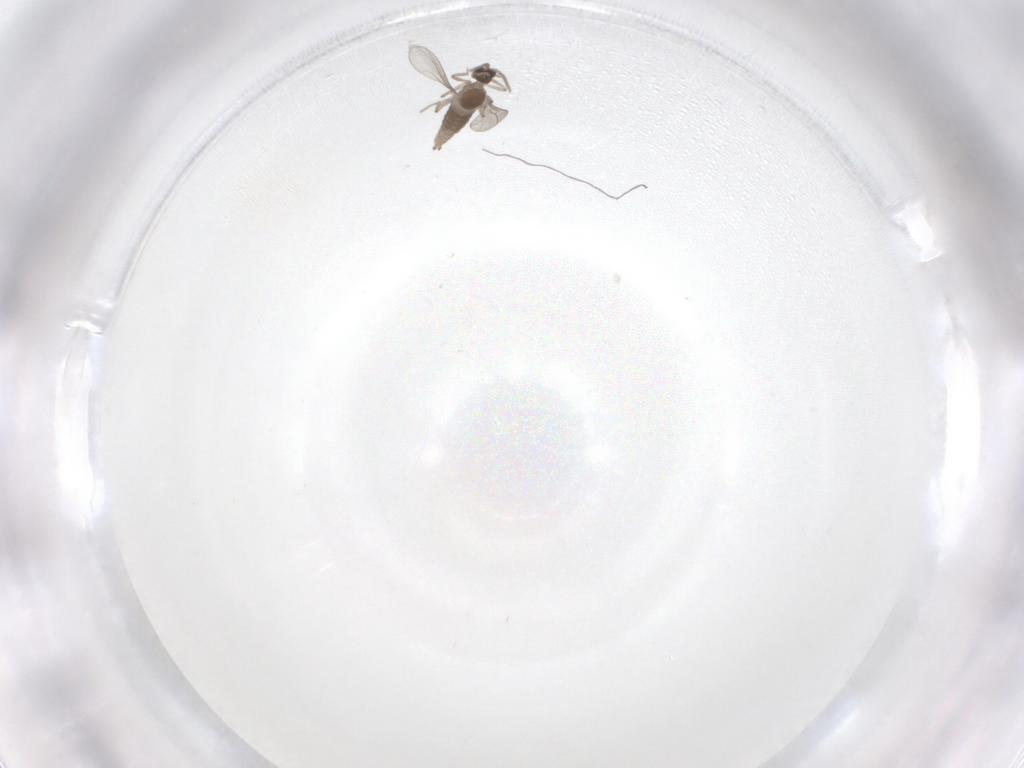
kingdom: Animalia
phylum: Arthropoda
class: Insecta
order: Diptera
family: Cecidomyiidae
